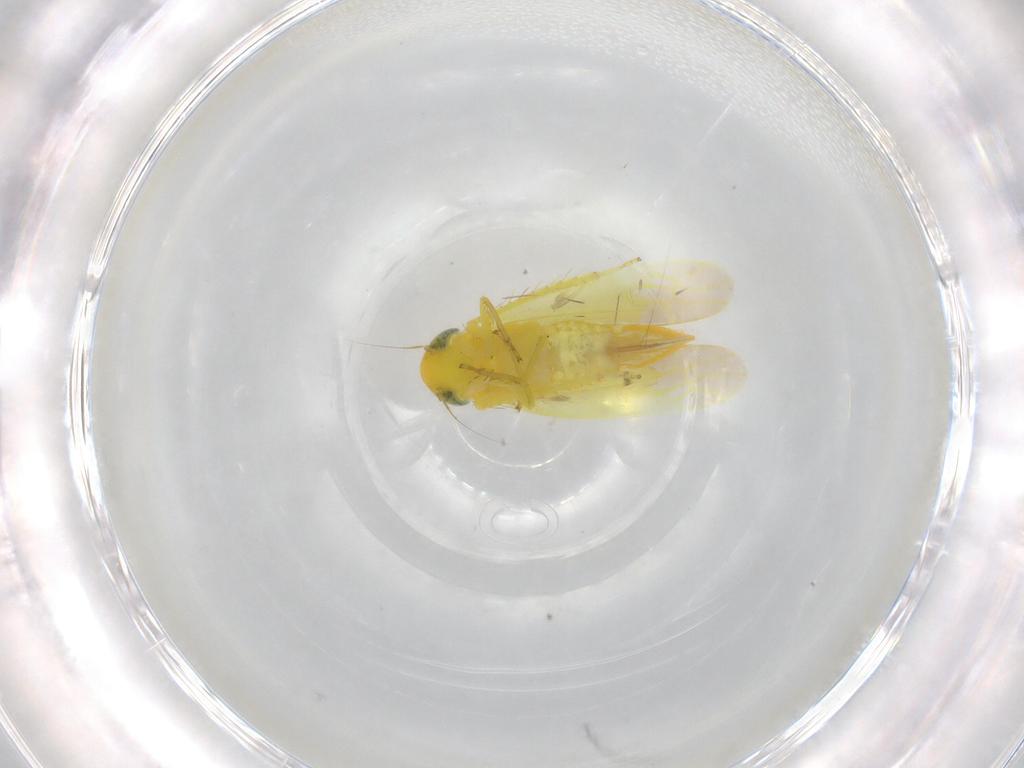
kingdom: Animalia
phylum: Arthropoda
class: Insecta
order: Hemiptera
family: Cicadellidae
